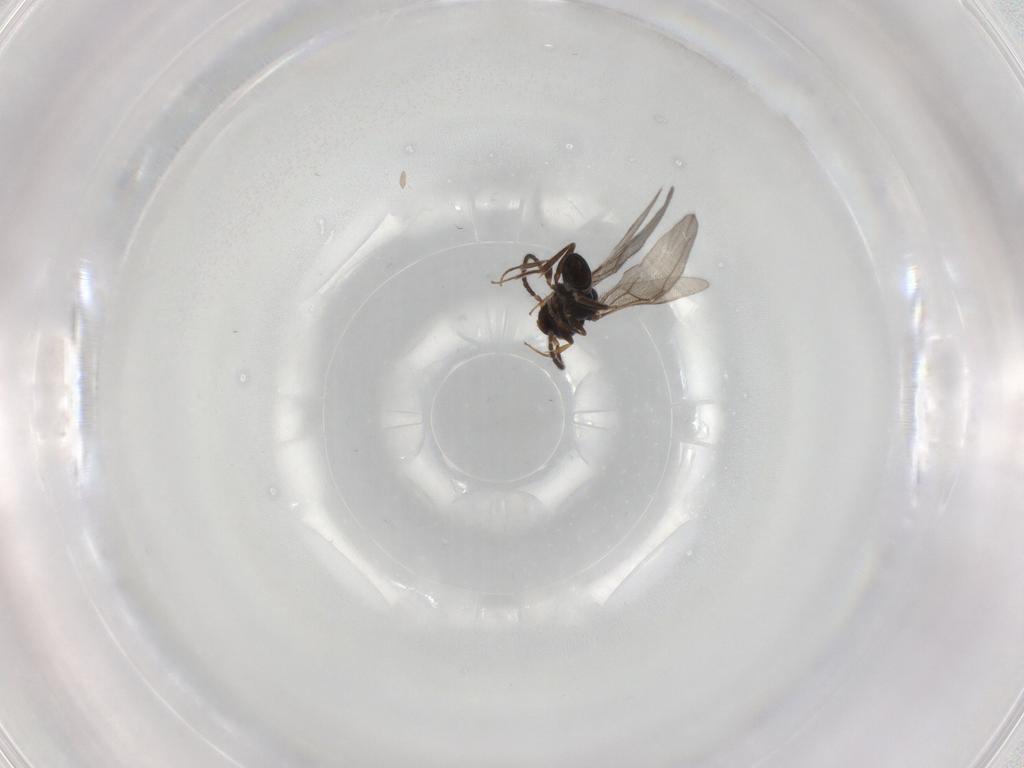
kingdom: Animalia
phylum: Arthropoda
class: Insecta
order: Hymenoptera
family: Bethylidae
